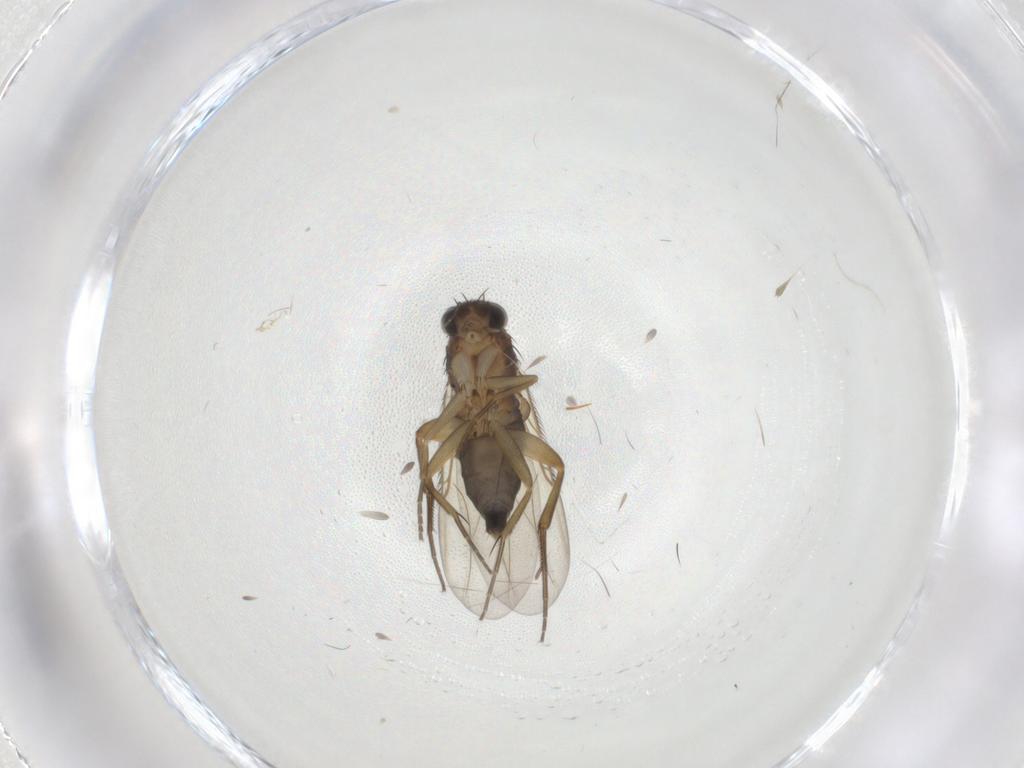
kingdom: Animalia
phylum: Arthropoda
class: Insecta
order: Diptera
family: Phoridae
